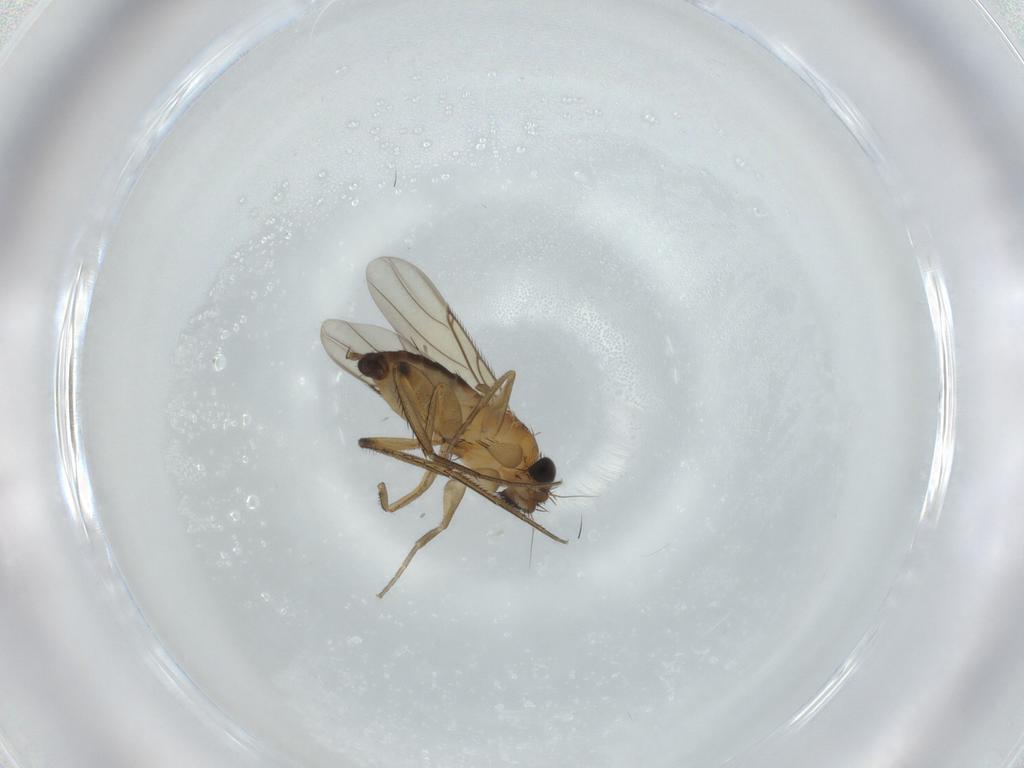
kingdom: Animalia
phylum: Arthropoda
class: Insecta
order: Diptera
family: Phoridae
